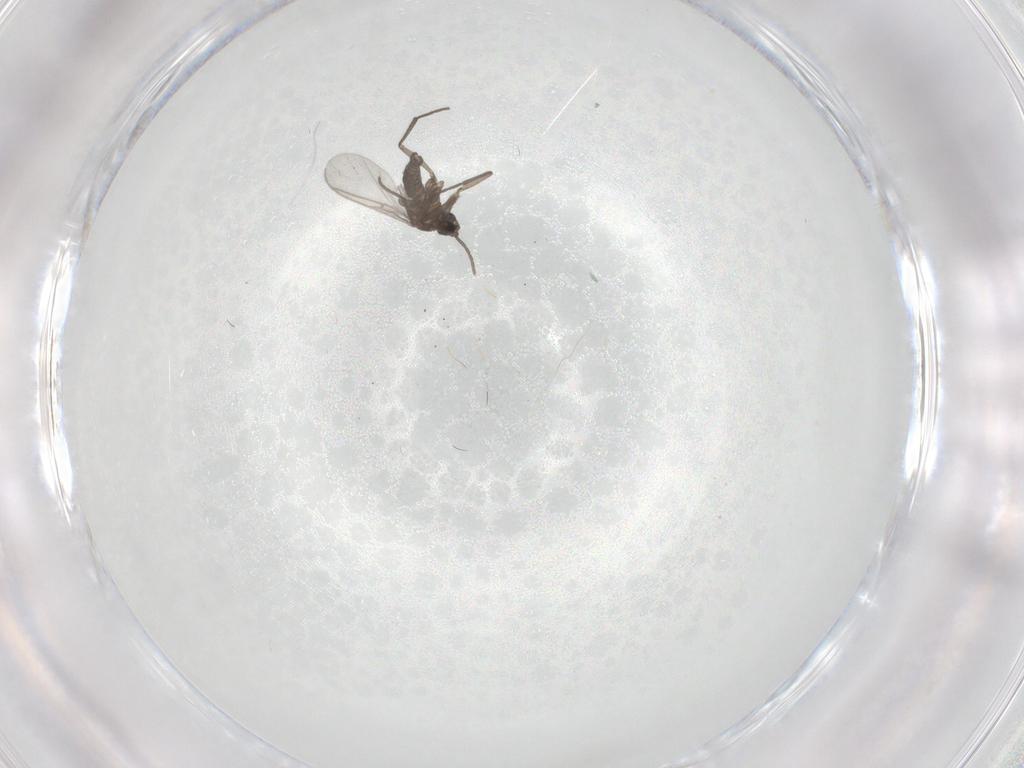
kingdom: Animalia
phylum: Arthropoda
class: Insecta
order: Diptera
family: Sciaridae
